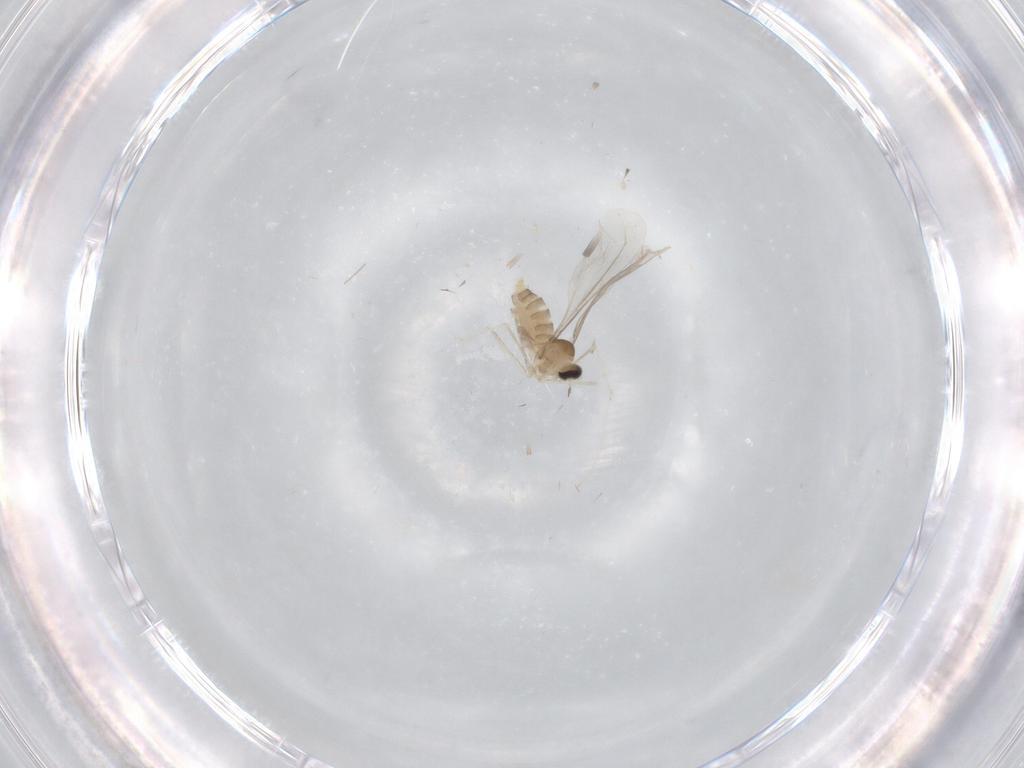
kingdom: Animalia
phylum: Arthropoda
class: Insecta
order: Diptera
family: Cecidomyiidae
